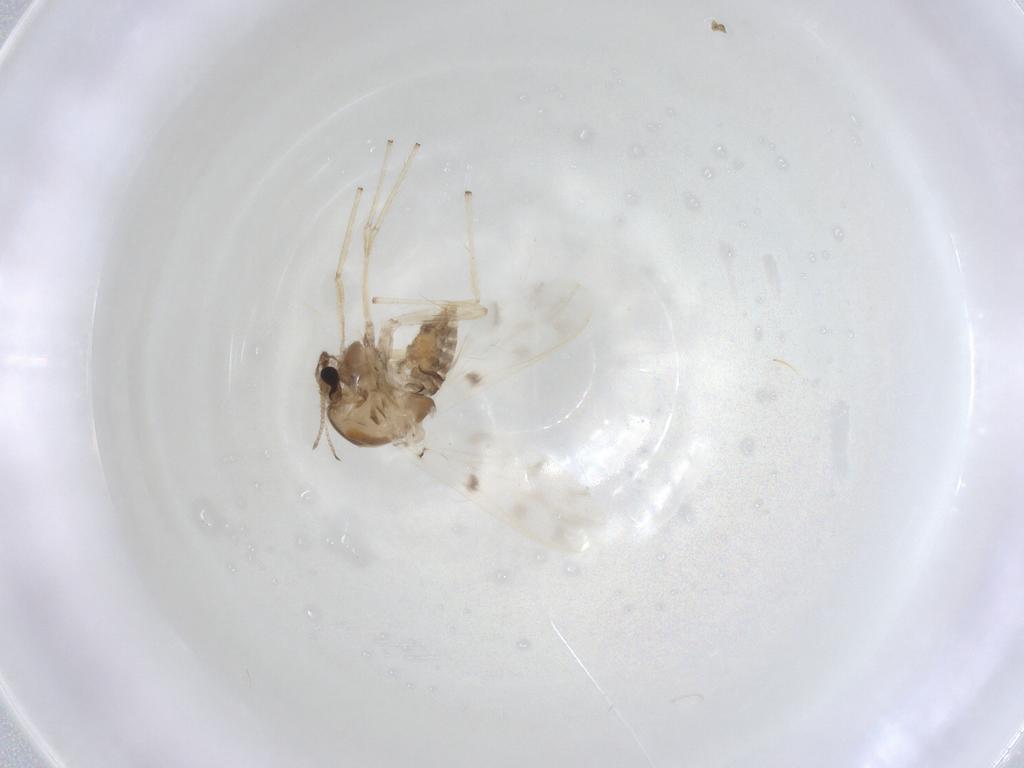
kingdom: Animalia
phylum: Arthropoda
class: Insecta
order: Diptera
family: Chironomidae
